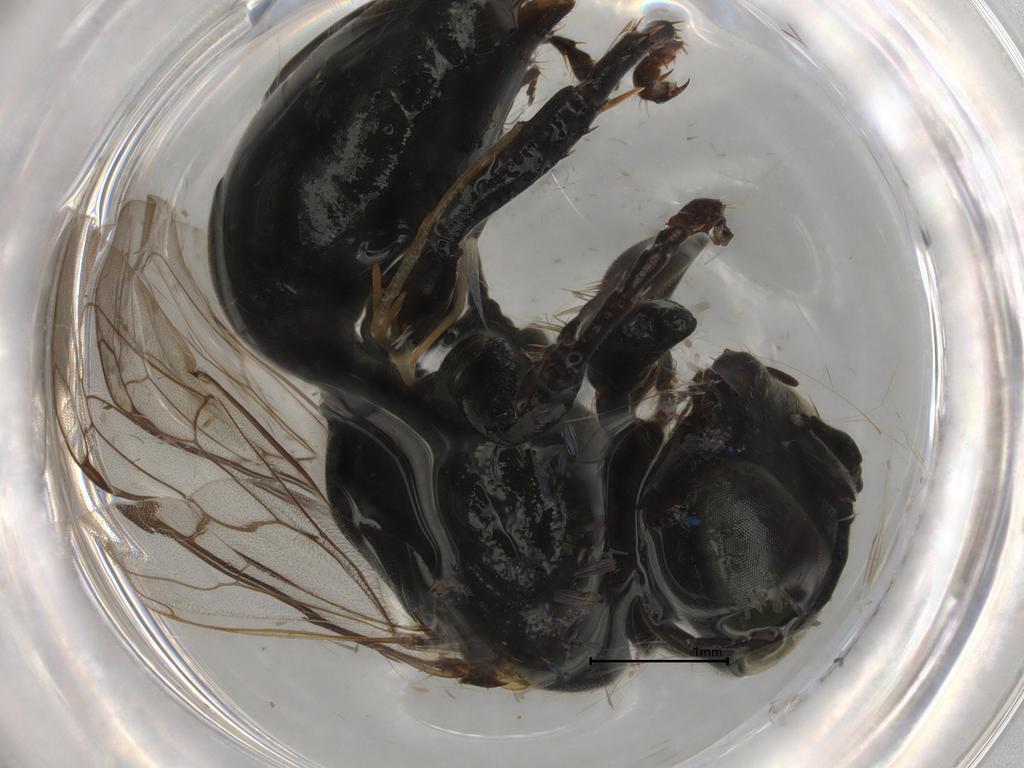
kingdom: Animalia
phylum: Arthropoda
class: Insecta
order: Hymenoptera
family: Crabronidae
